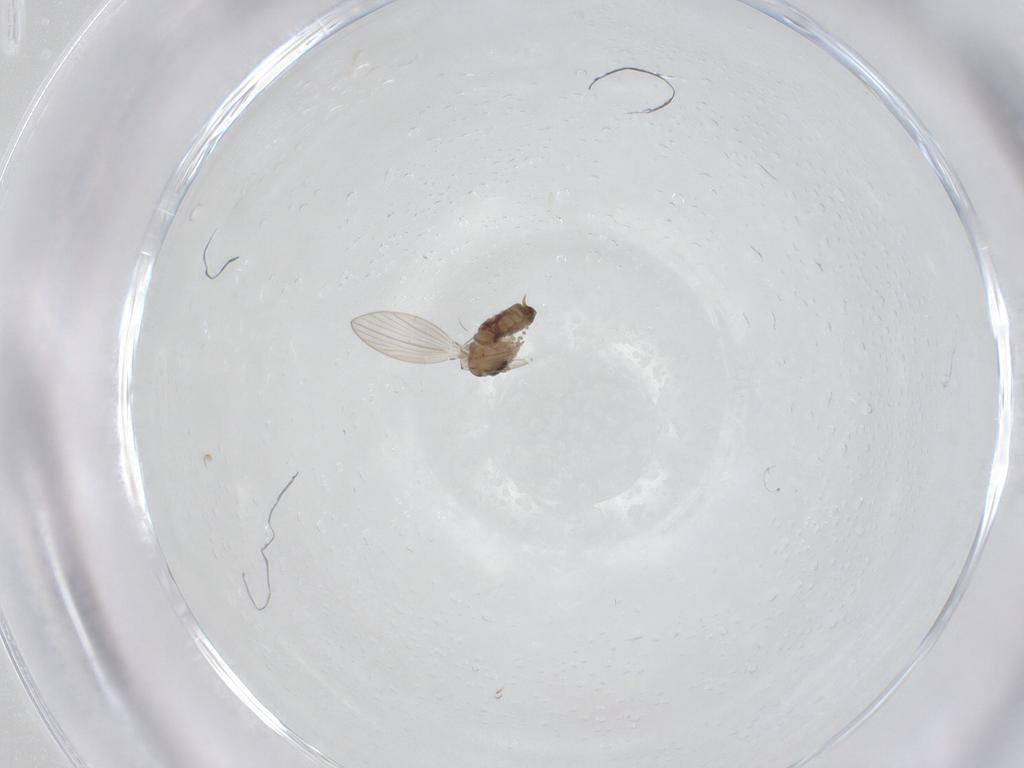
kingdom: Animalia
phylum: Arthropoda
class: Insecta
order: Diptera
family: Psychodidae
